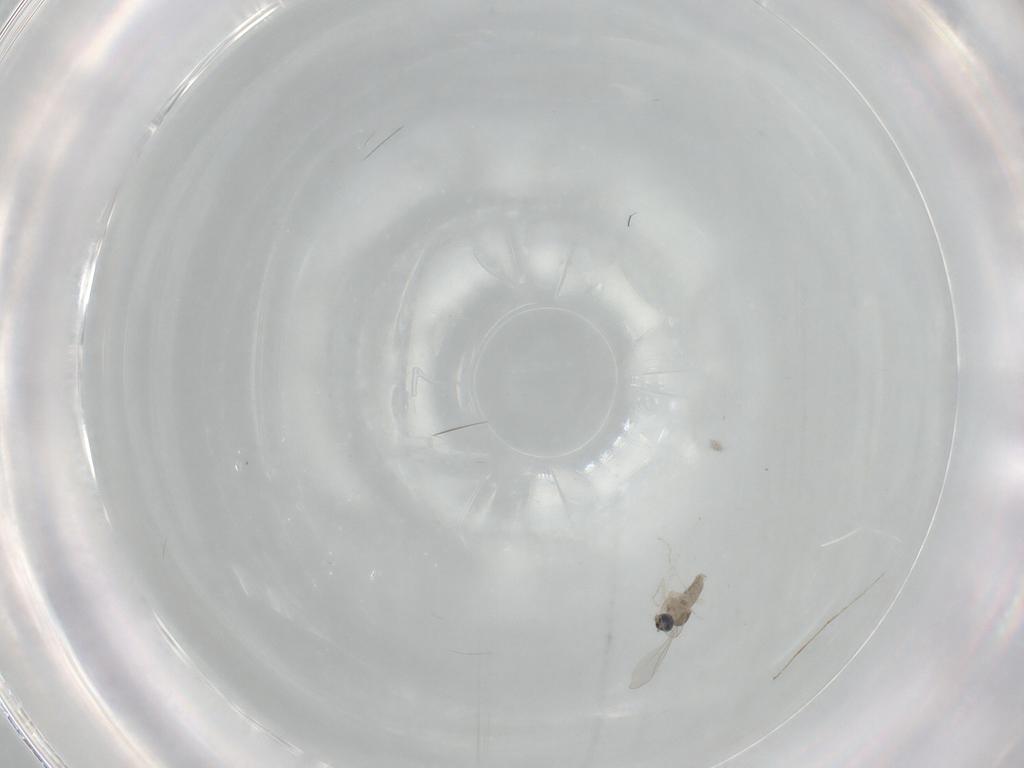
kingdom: Animalia
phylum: Arthropoda
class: Insecta
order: Diptera
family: Cecidomyiidae
